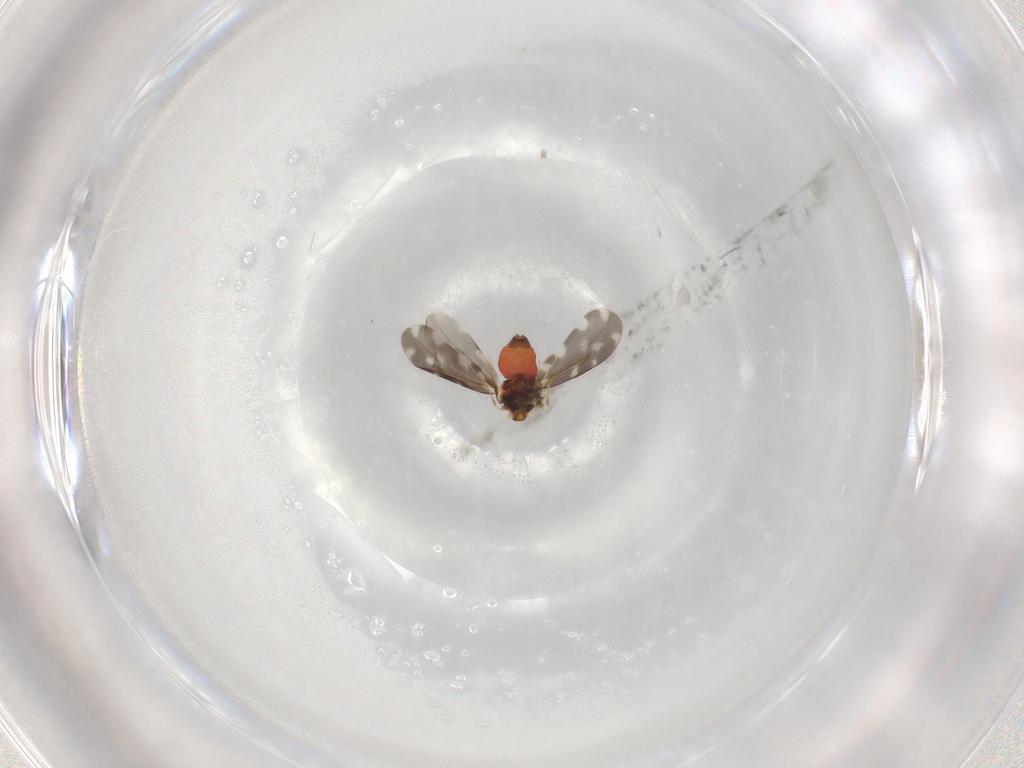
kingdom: Animalia
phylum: Arthropoda
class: Insecta
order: Hemiptera
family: Aleyrodidae
